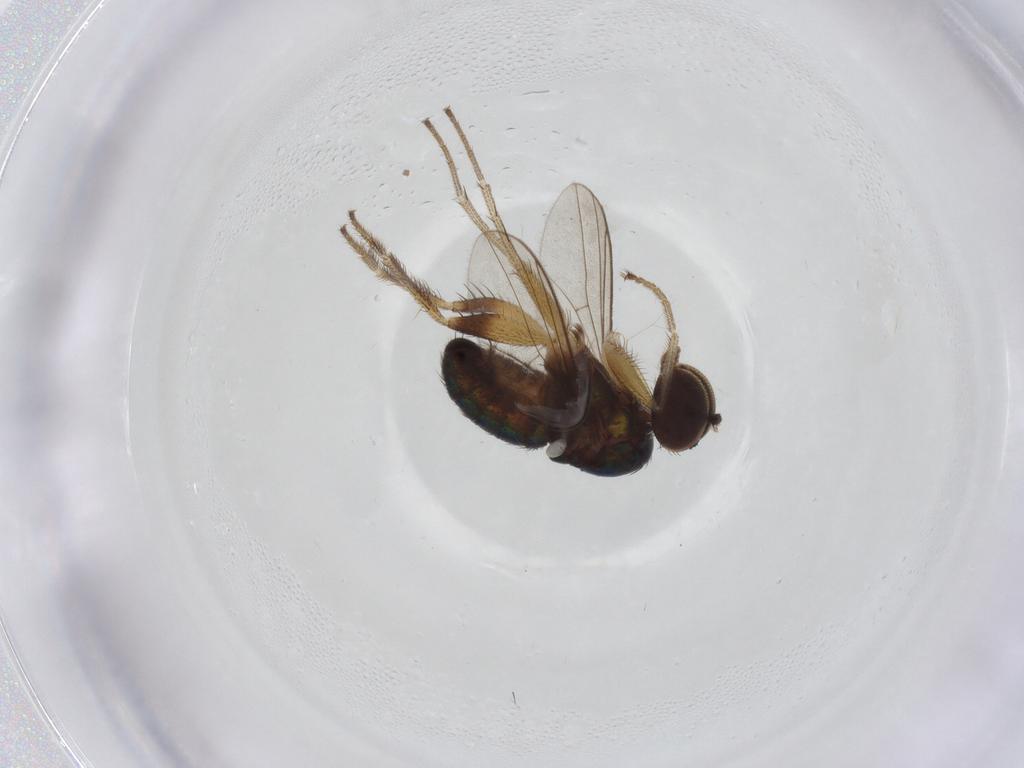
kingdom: Animalia
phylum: Arthropoda
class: Insecta
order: Diptera
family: Dolichopodidae
